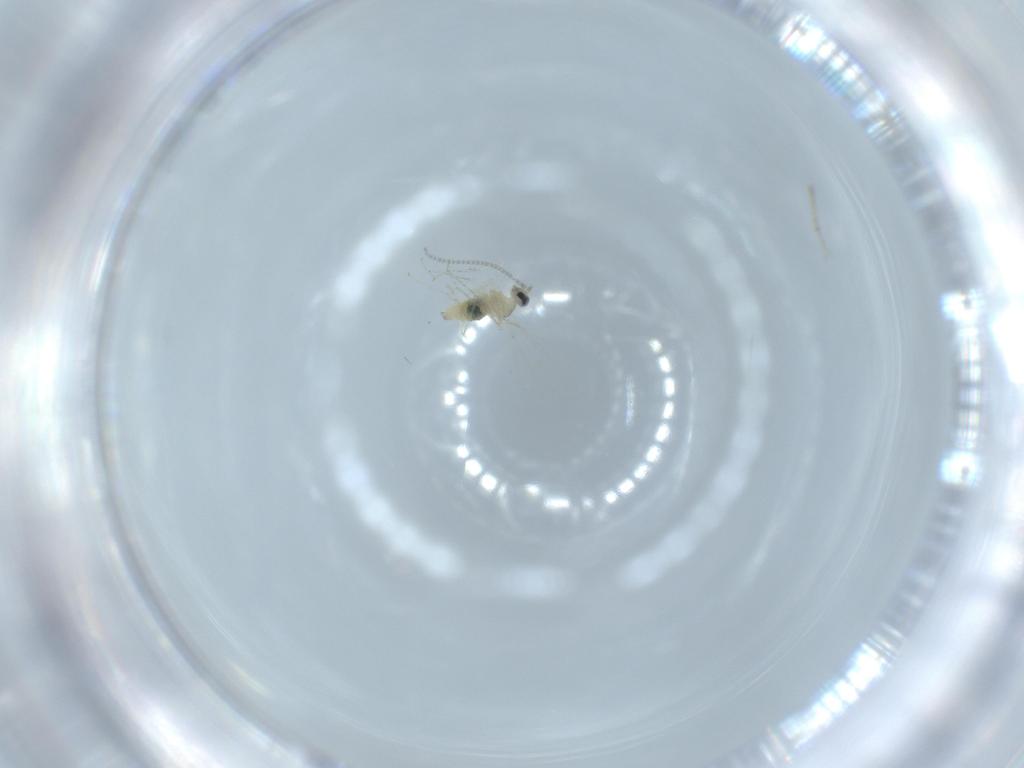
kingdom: Animalia
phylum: Arthropoda
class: Insecta
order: Diptera
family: Cecidomyiidae
